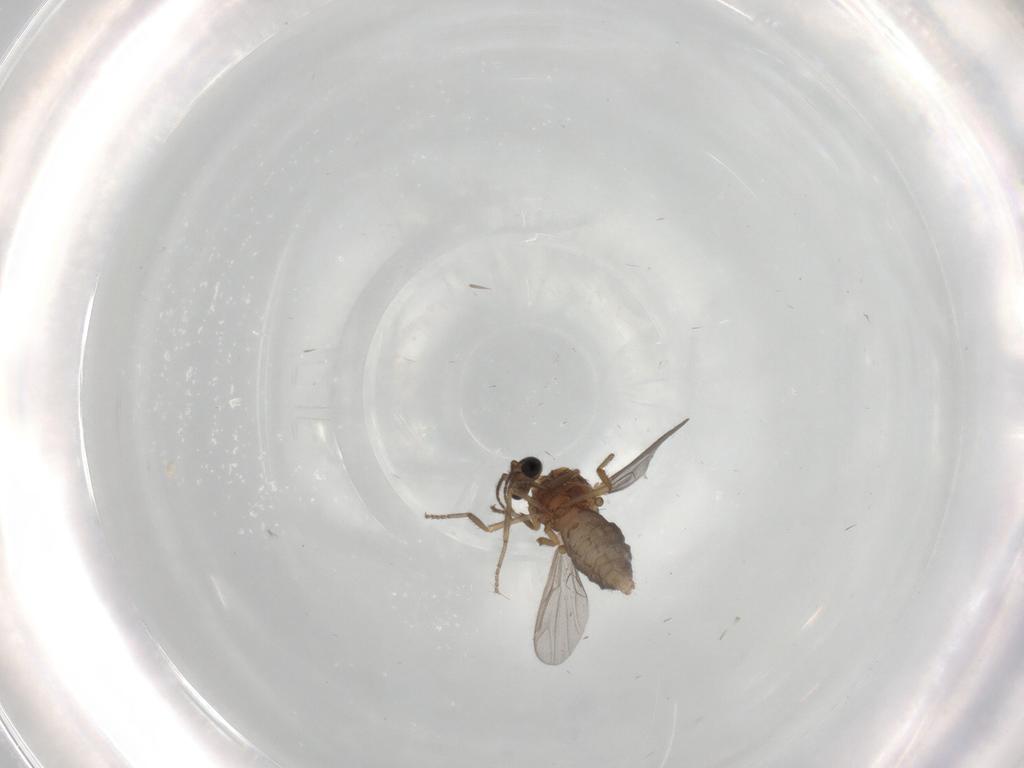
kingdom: Animalia
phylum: Arthropoda
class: Insecta
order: Diptera
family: Ceratopogonidae
